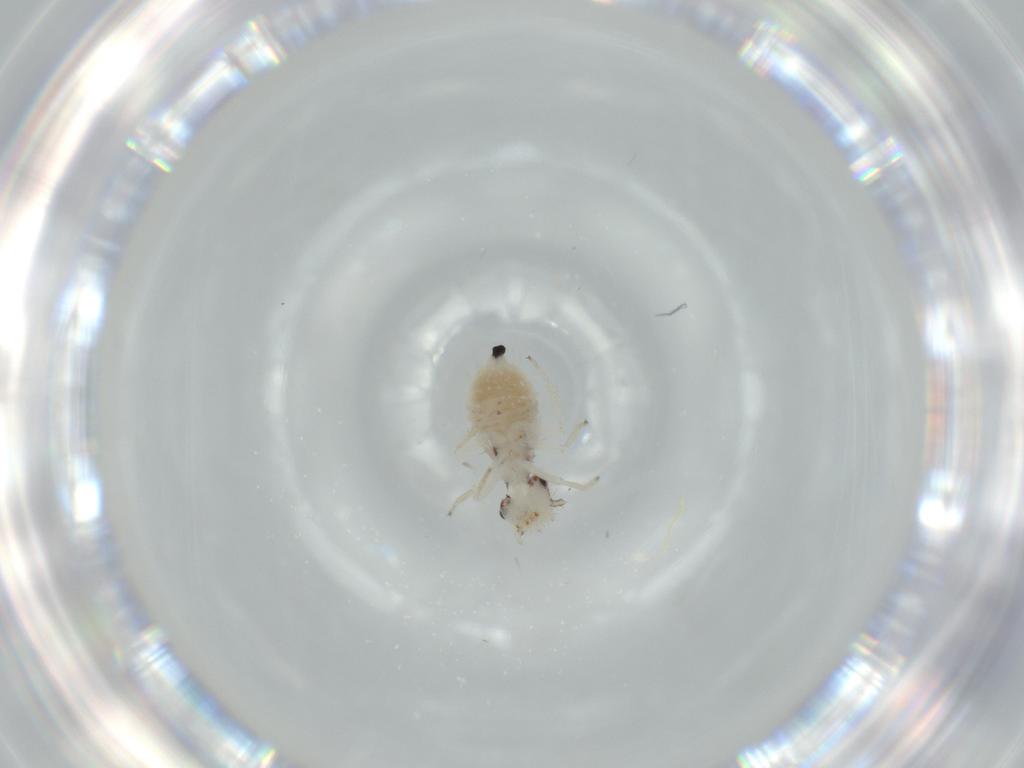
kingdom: Animalia
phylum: Arthropoda
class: Insecta
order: Psocodea
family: Pseudocaeciliidae
